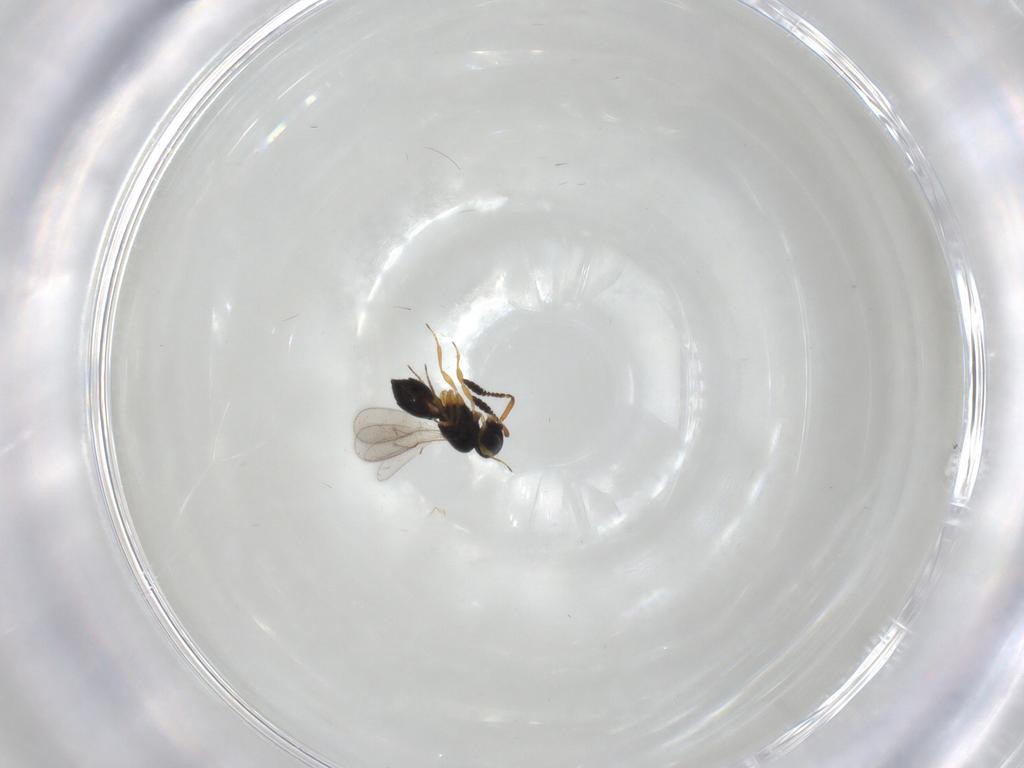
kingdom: Animalia
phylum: Arthropoda
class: Insecta
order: Hymenoptera
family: Scelionidae
